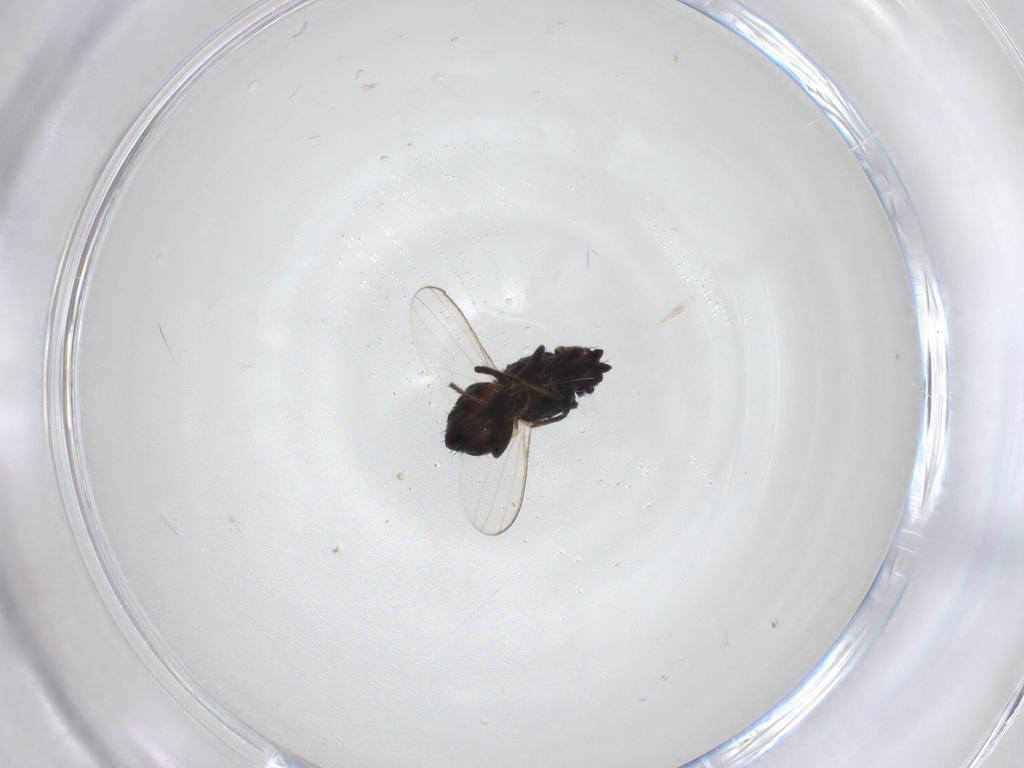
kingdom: Animalia
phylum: Arthropoda
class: Insecta
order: Diptera
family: Milichiidae
